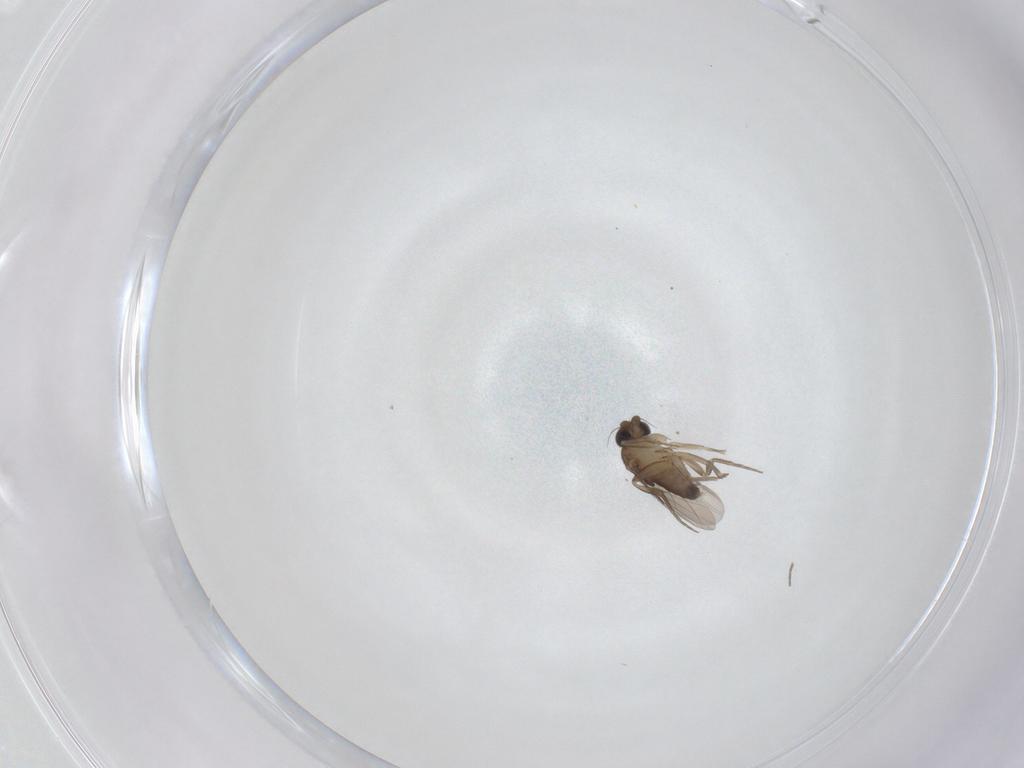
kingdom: Animalia
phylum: Arthropoda
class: Insecta
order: Diptera
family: Phoridae
